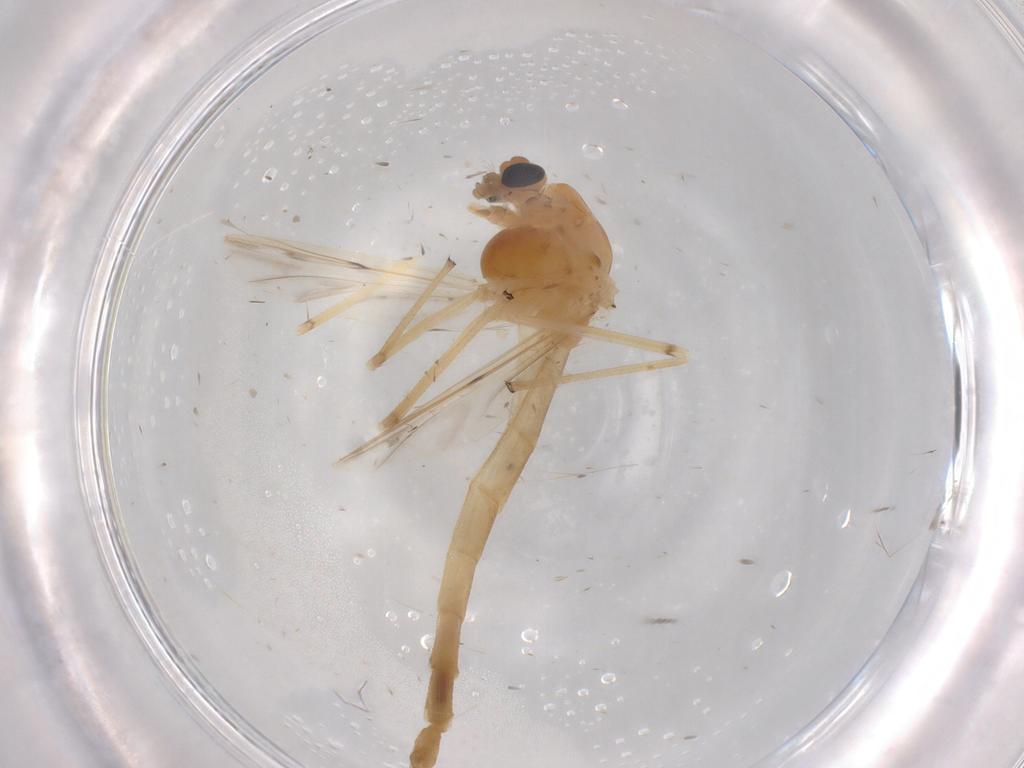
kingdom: Animalia
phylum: Arthropoda
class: Insecta
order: Diptera
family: Chironomidae
